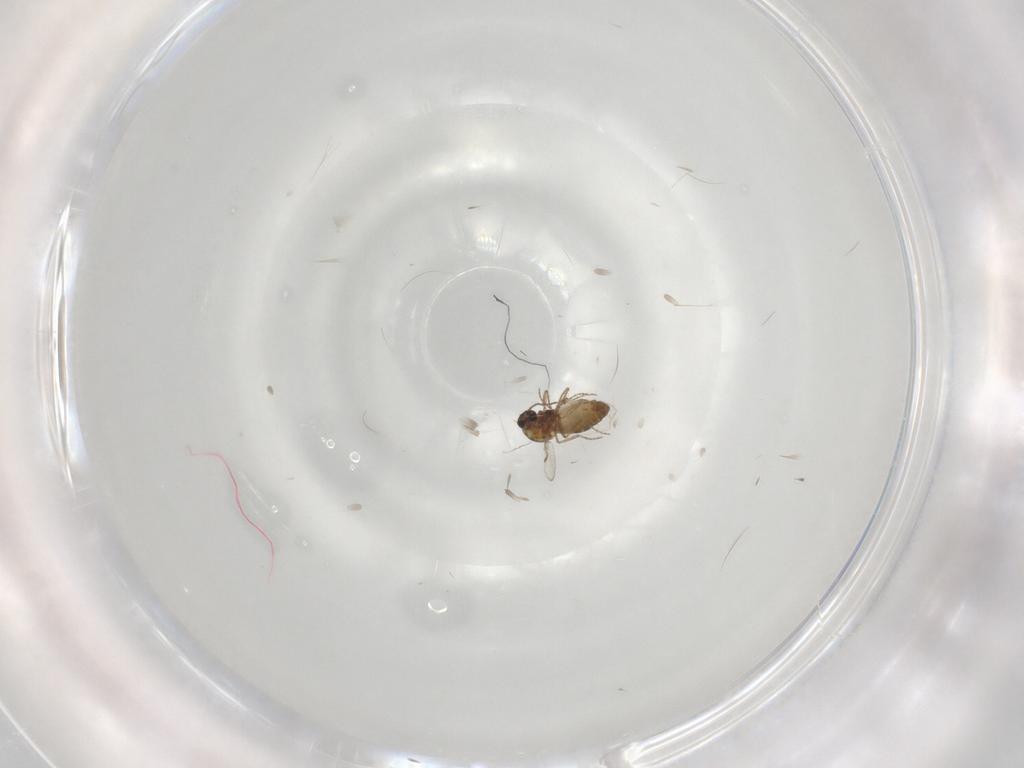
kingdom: Animalia
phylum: Arthropoda
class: Insecta
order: Diptera
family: Ceratopogonidae
